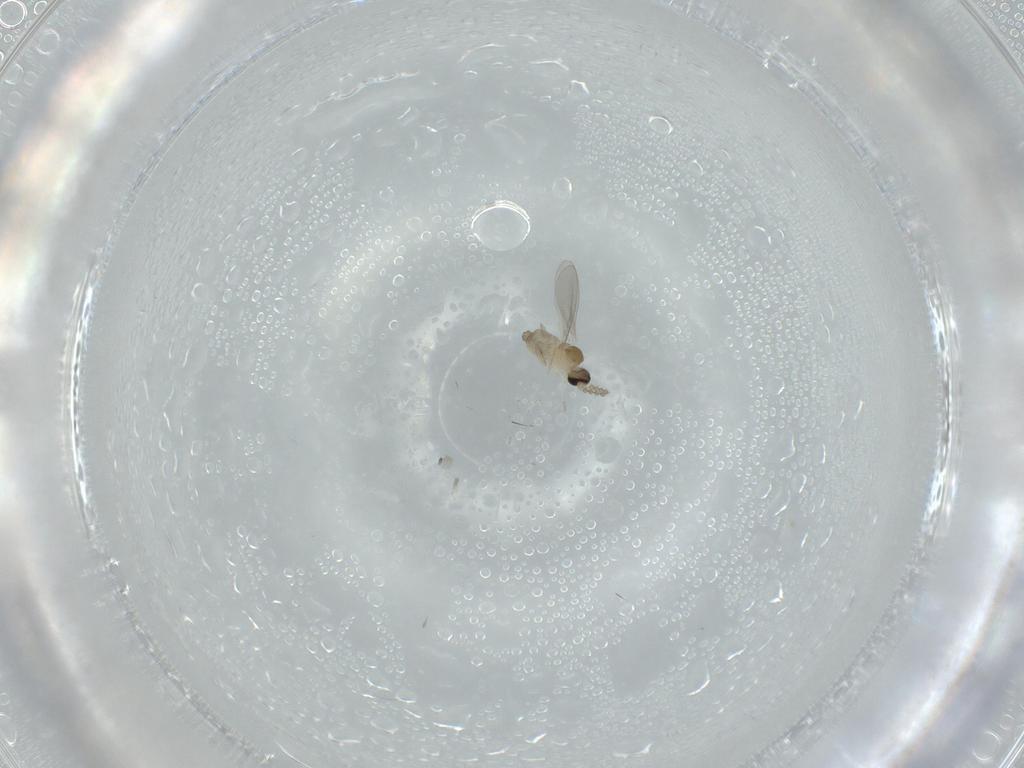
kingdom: Animalia
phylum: Arthropoda
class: Insecta
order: Diptera
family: Cecidomyiidae
